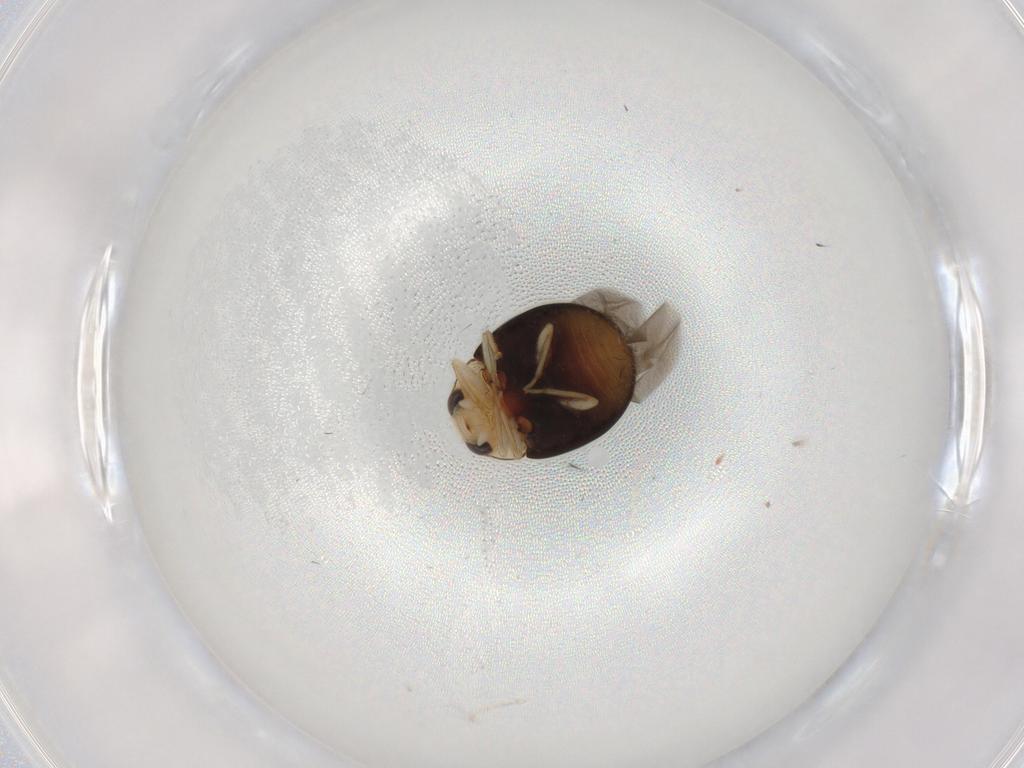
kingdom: Animalia
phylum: Arthropoda
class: Insecta
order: Coleoptera
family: Coccinellidae
